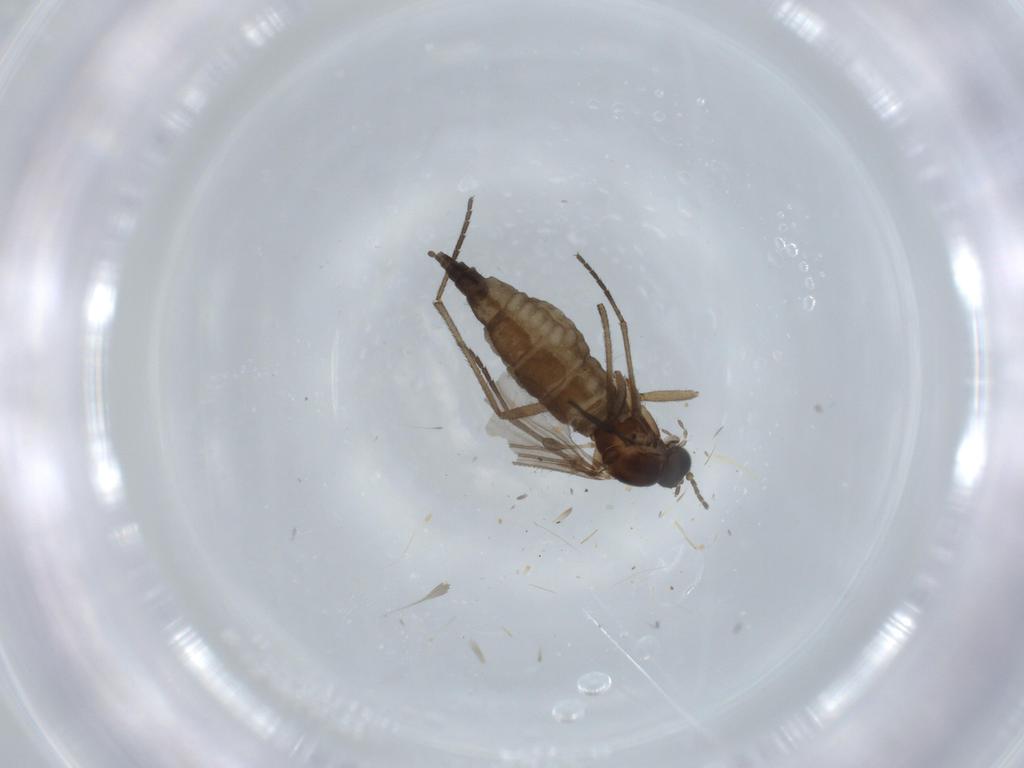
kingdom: Animalia
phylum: Arthropoda
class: Insecta
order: Diptera
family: Sciaridae
